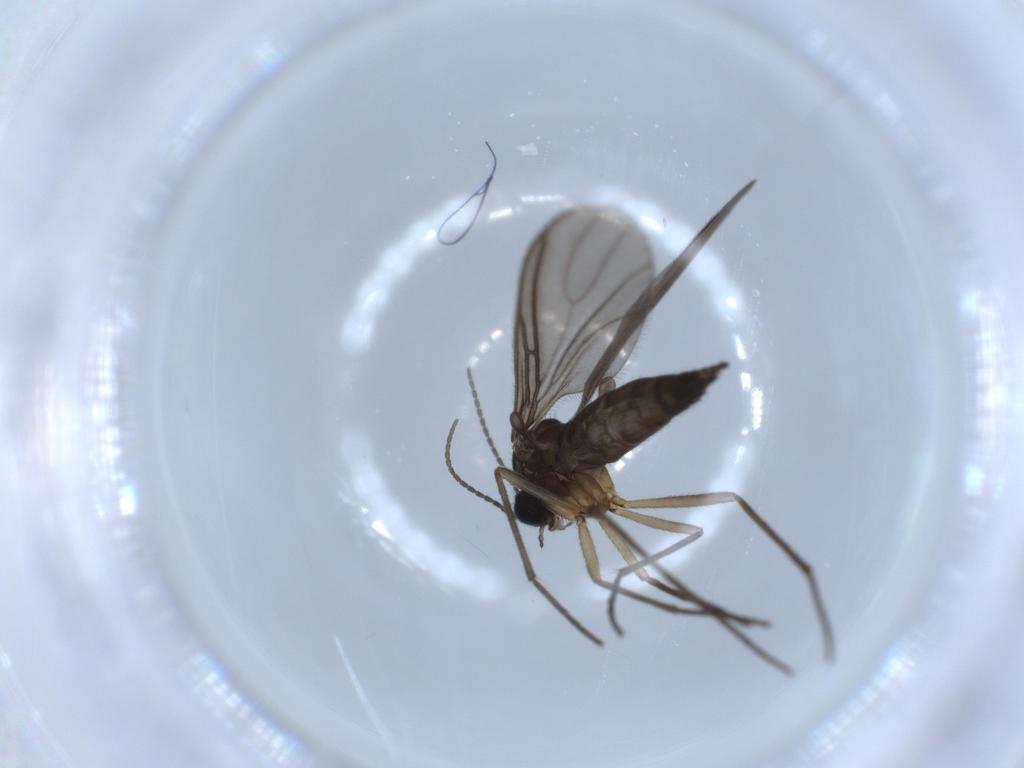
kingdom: Animalia
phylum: Arthropoda
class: Insecta
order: Diptera
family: Sciaridae
